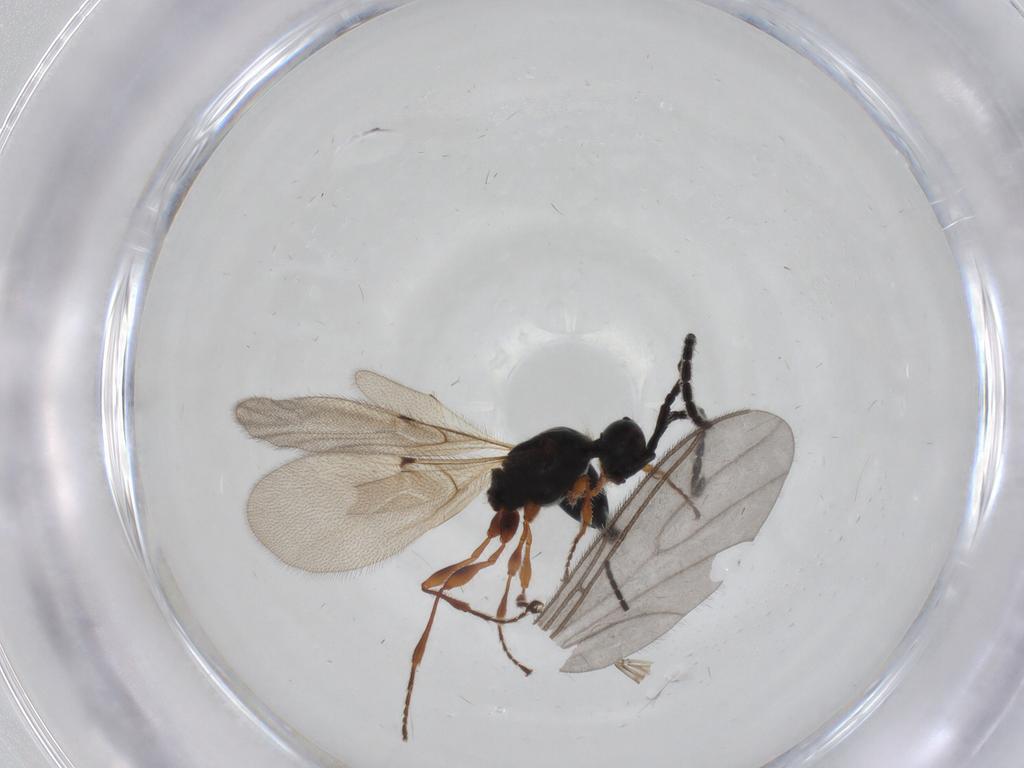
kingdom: Animalia
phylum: Arthropoda
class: Insecta
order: Hymenoptera
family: Diapriidae
